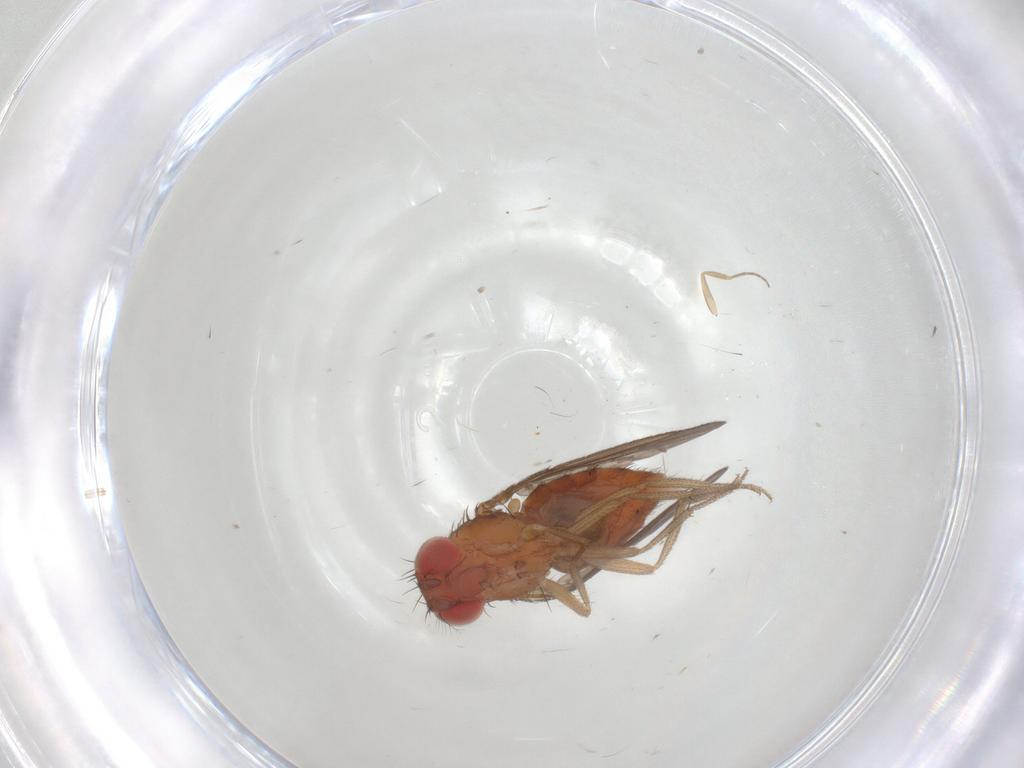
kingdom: Animalia
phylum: Arthropoda
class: Insecta
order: Diptera
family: Drosophilidae
